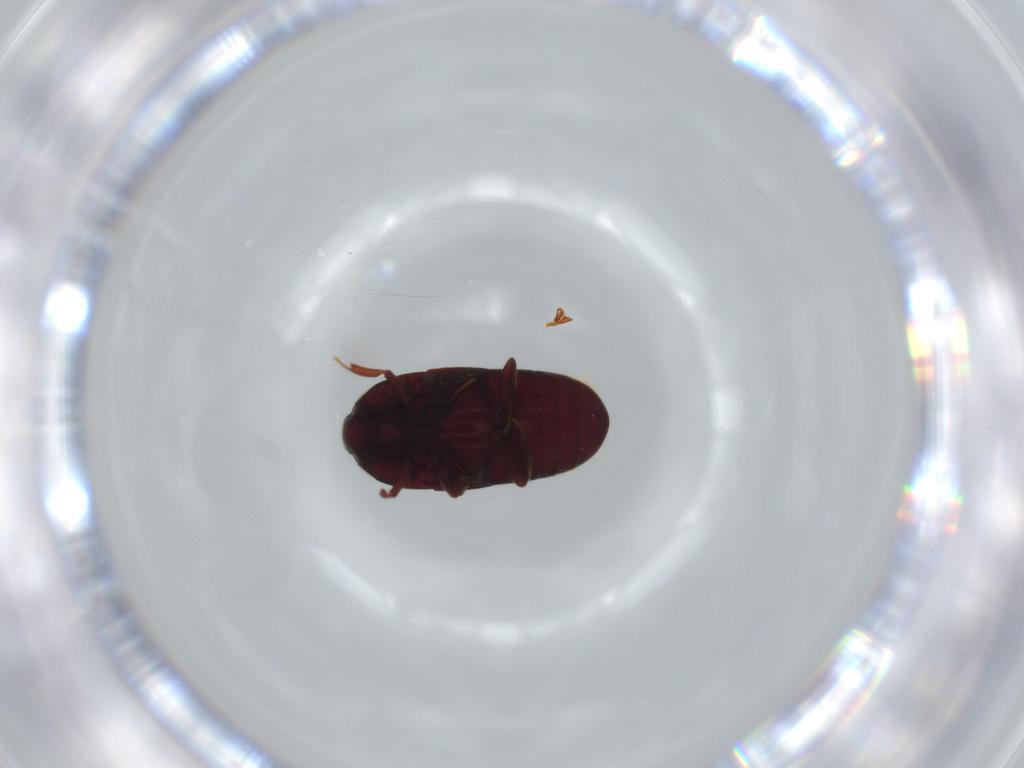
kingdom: Animalia
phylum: Arthropoda
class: Insecta
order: Coleoptera
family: Throscidae
